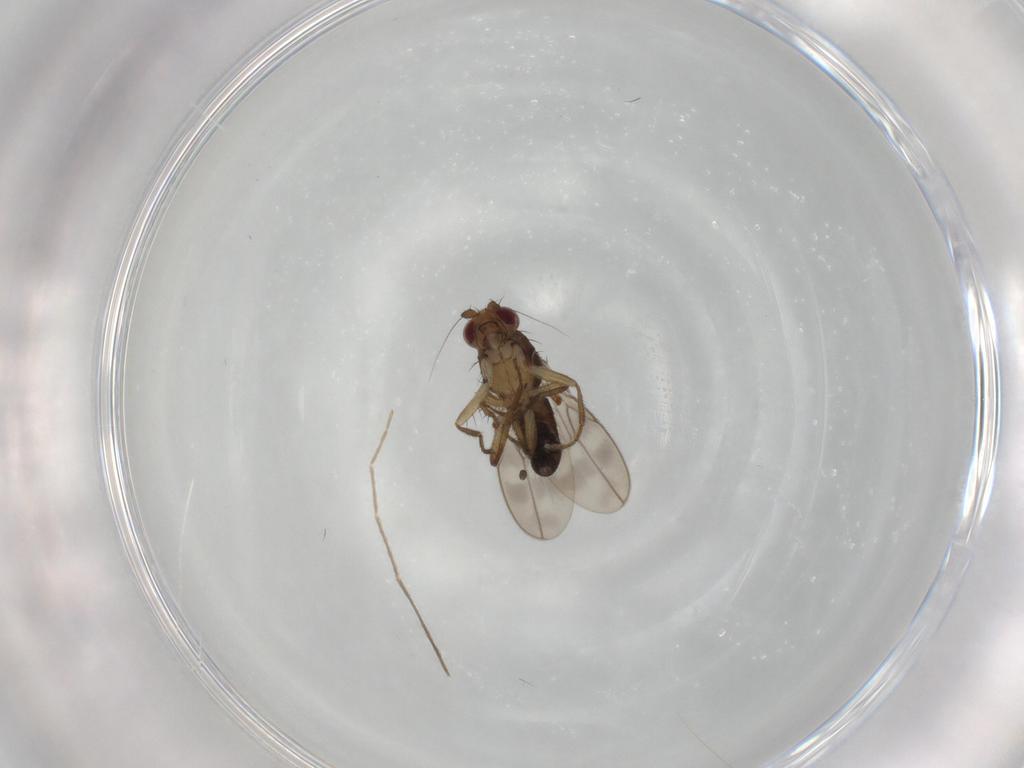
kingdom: Animalia
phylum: Arthropoda
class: Insecta
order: Diptera
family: Sphaeroceridae
